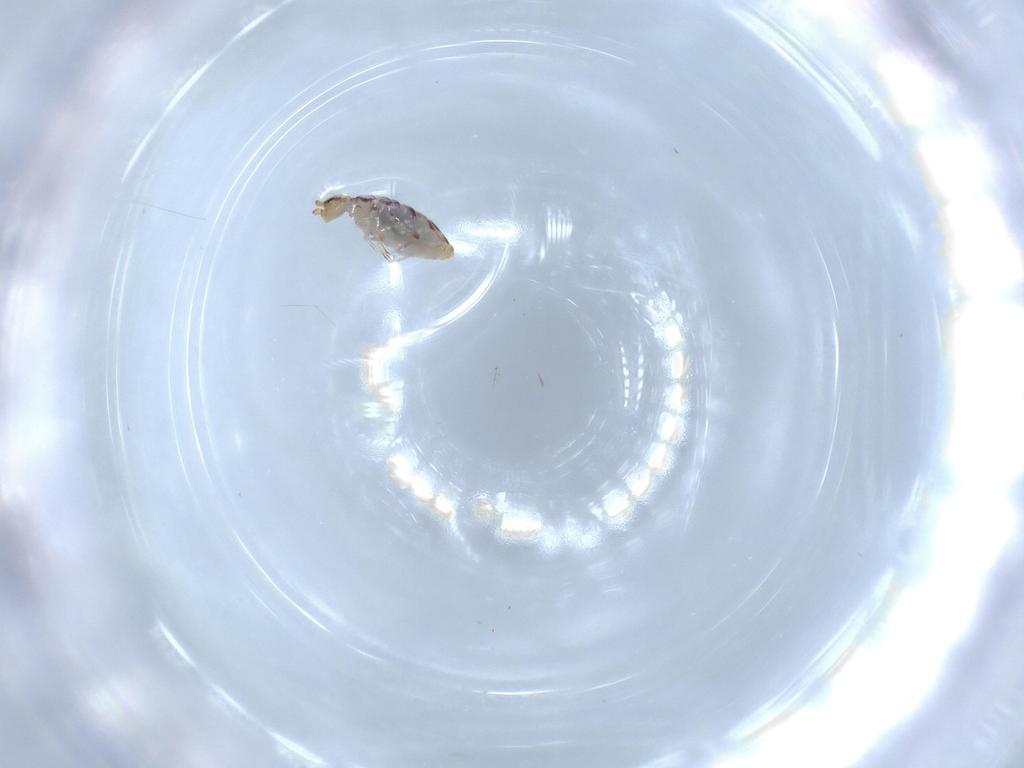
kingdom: Animalia
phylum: Arthropoda
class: Collembola
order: Entomobryomorpha
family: Entomobryidae
